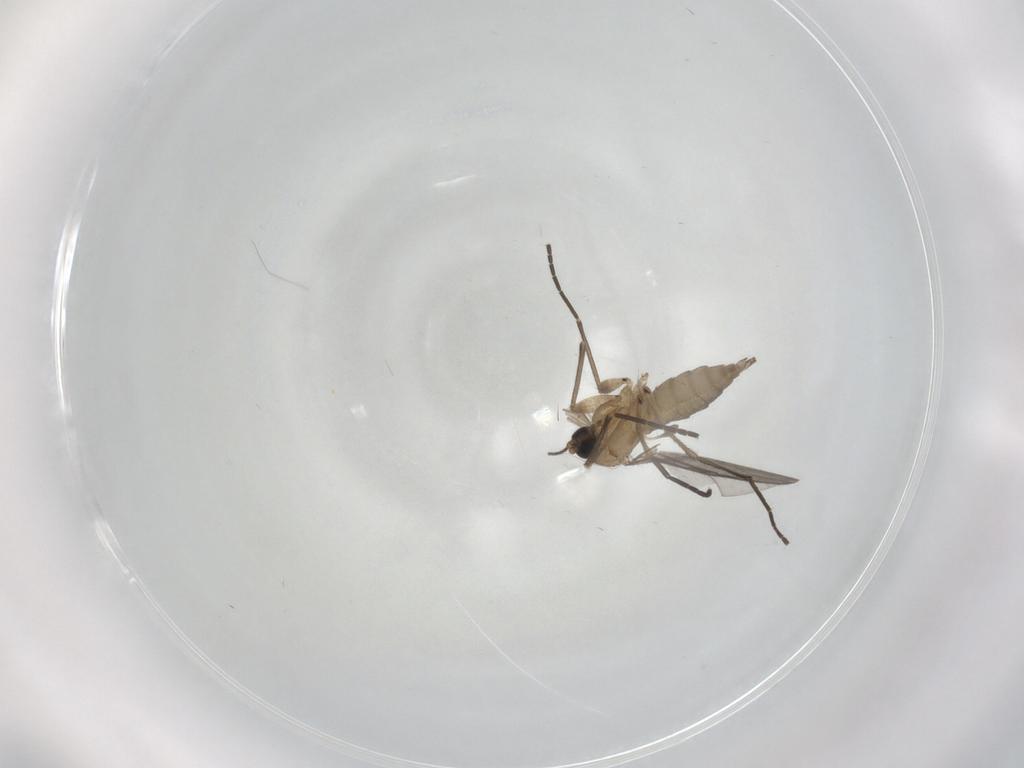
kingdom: Animalia
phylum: Arthropoda
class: Insecta
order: Diptera
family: Sciaridae
